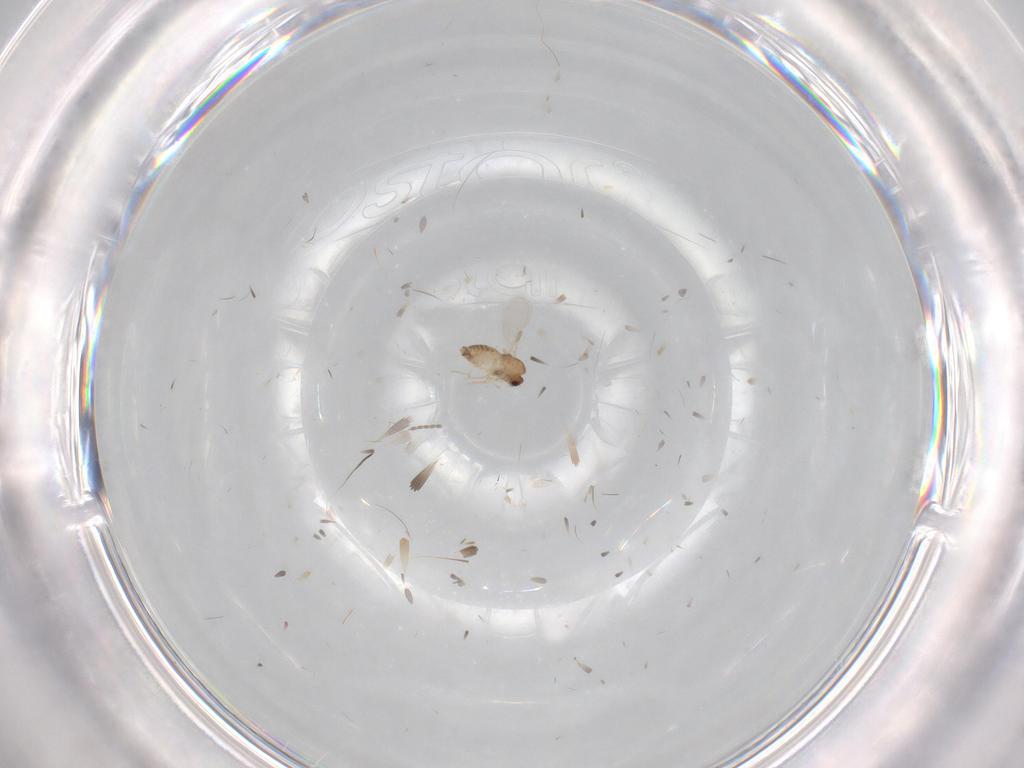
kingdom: Animalia
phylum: Arthropoda
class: Insecta
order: Diptera
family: Chironomidae
